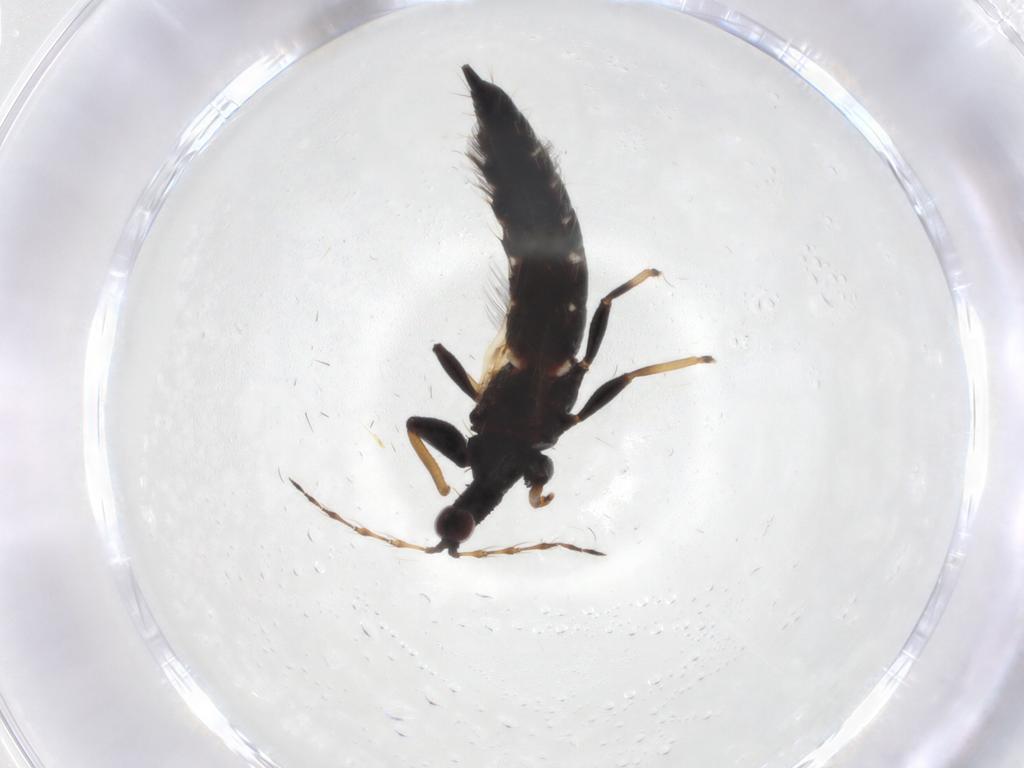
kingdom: Animalia
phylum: Arthropoda
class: Insecta
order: Thysanoptera
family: Phlaeothripidae
